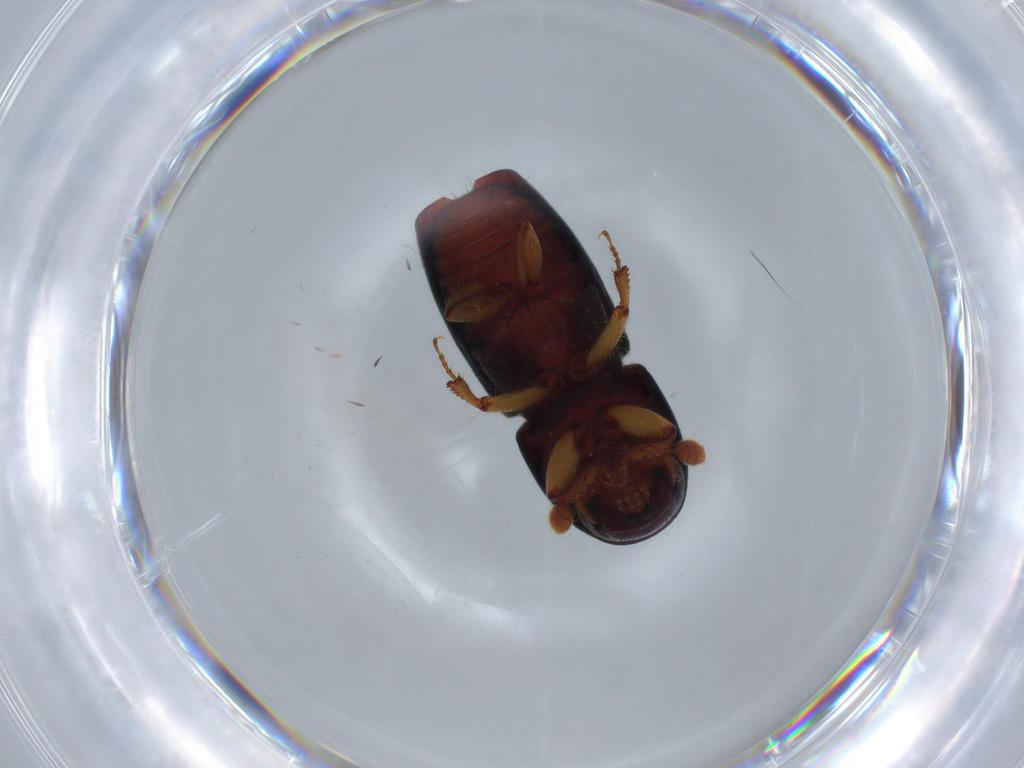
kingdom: Animalia
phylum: Arthropoda
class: Insecta
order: Coleoptera
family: Curculionidae
